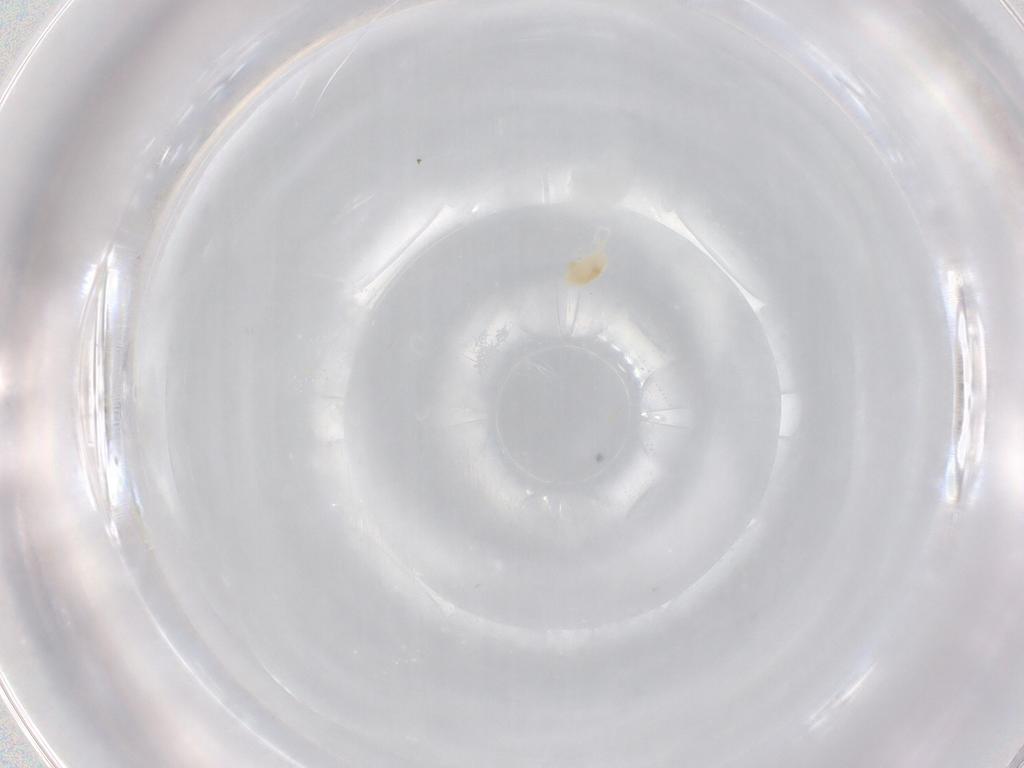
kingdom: Animalia
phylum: Arthropoda
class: Arachnida
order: Trombidiformes
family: Eupodidae
